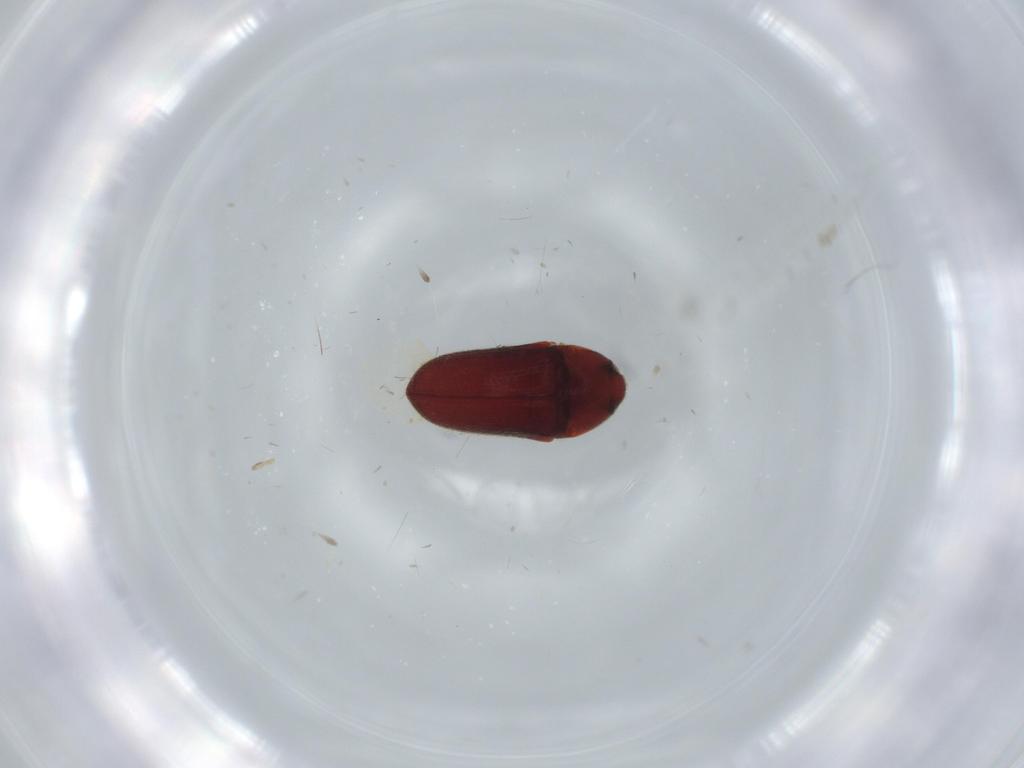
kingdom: Animalia
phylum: Arthropoda
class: Insecta
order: Coleoptera
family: Throscidae
